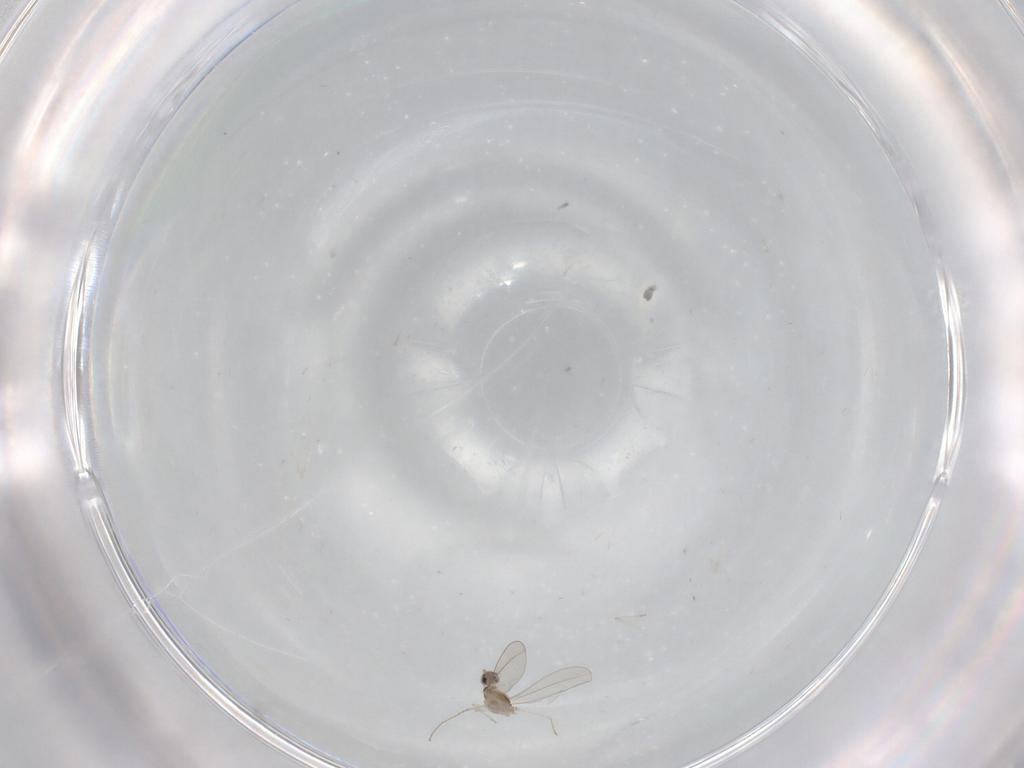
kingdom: Animalia
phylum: Arthropoda
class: Insecta
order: Diptera
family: Cecidomyiidae
